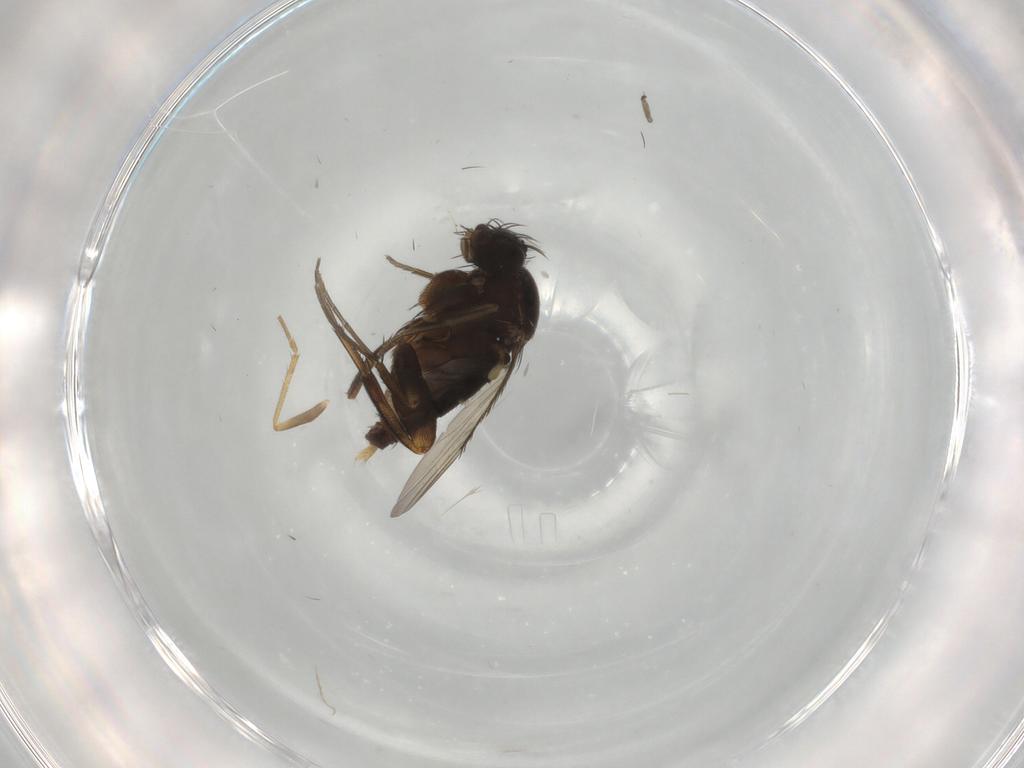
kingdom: Animalia
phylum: Arthropoda
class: Insecta
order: Diptera
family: Phoridae
